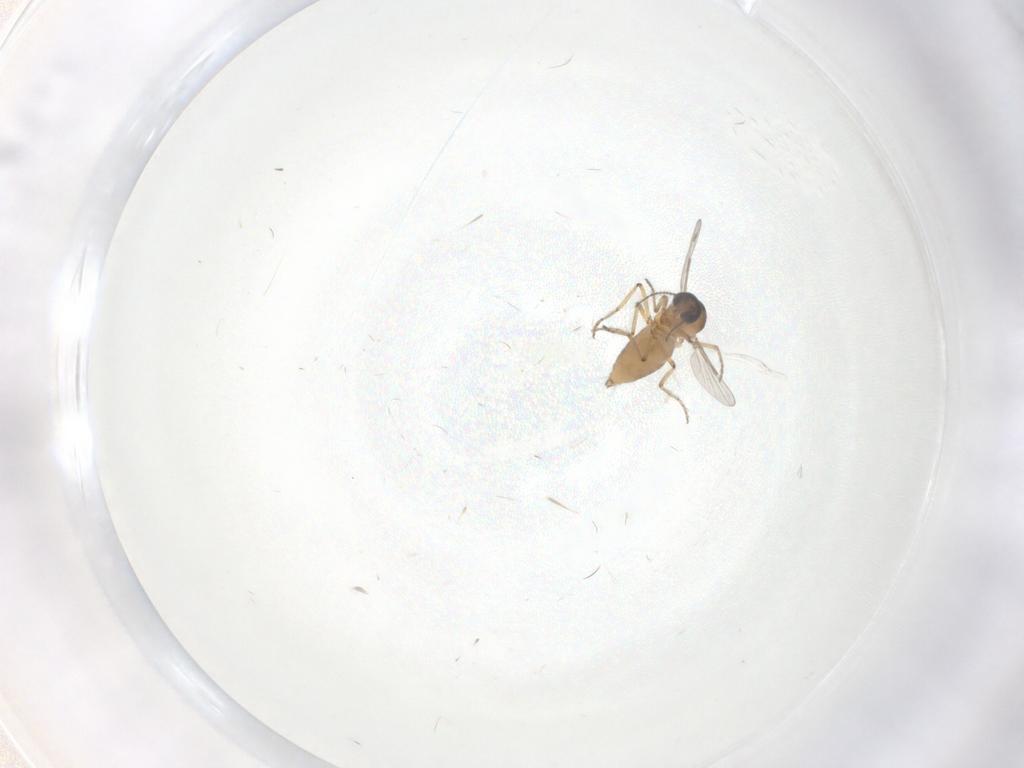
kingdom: Animalia
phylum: Arthropoda
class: Insecta
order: Diptera
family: Ceratopogonidae
